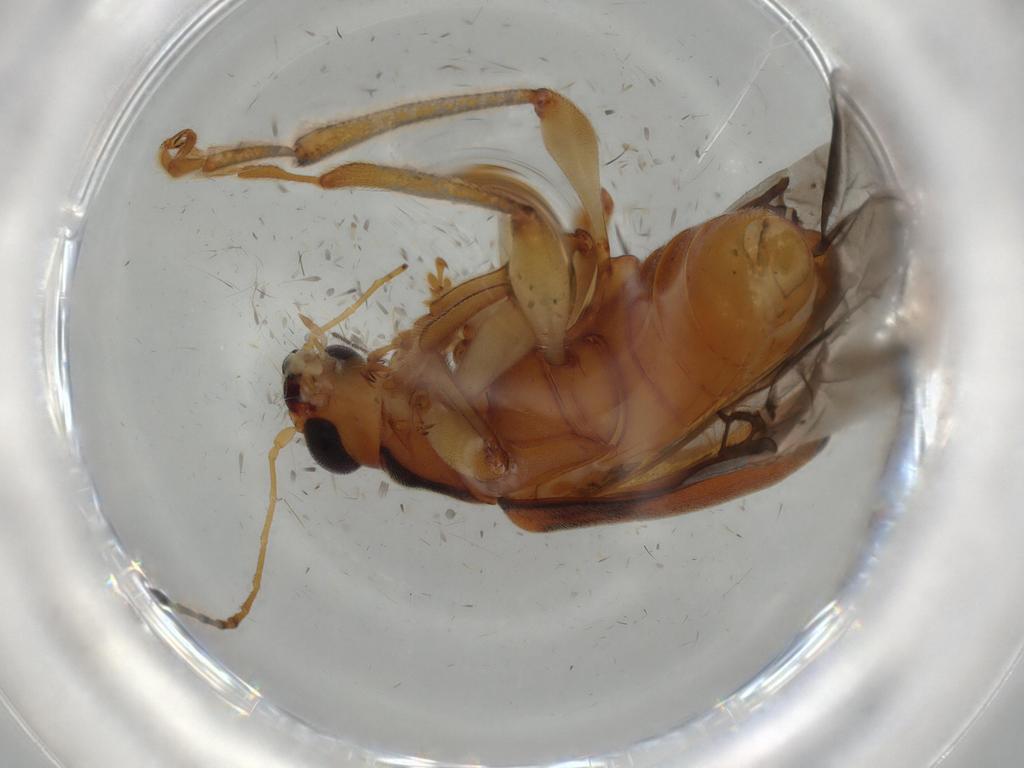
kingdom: Animalia
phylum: Arthropoda
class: Insecta
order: Coleoptera
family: Chrysomelidae
